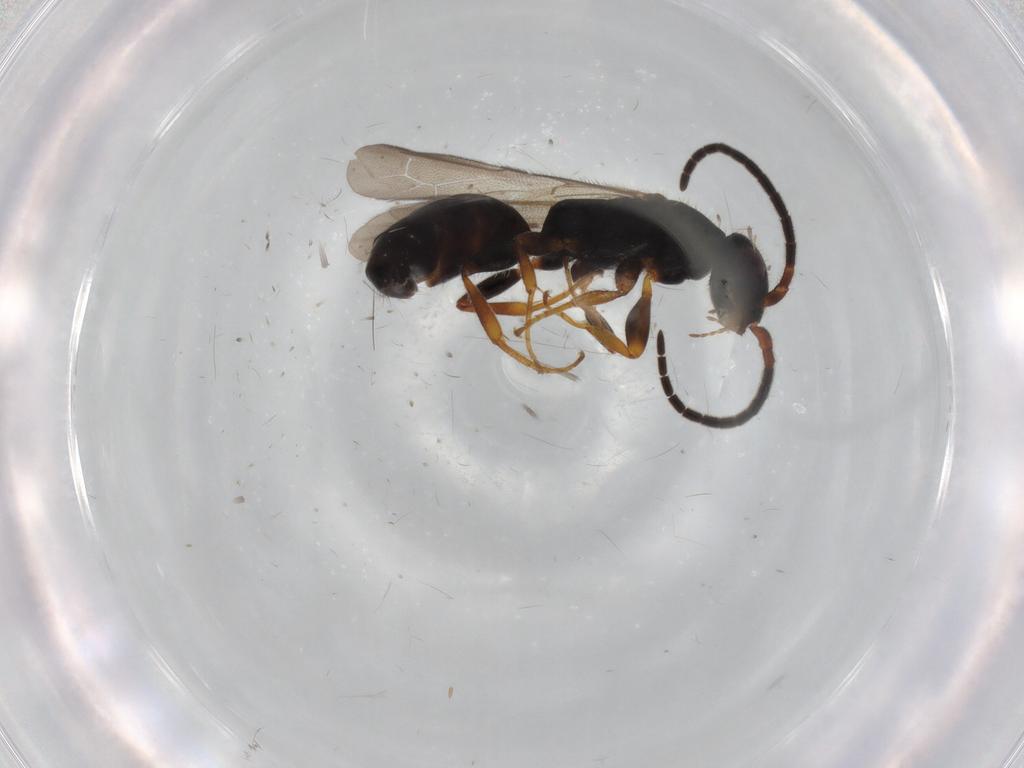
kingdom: Animalia
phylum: Arthropoda
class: Insecta
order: Hymenoptera
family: Bethylidae
